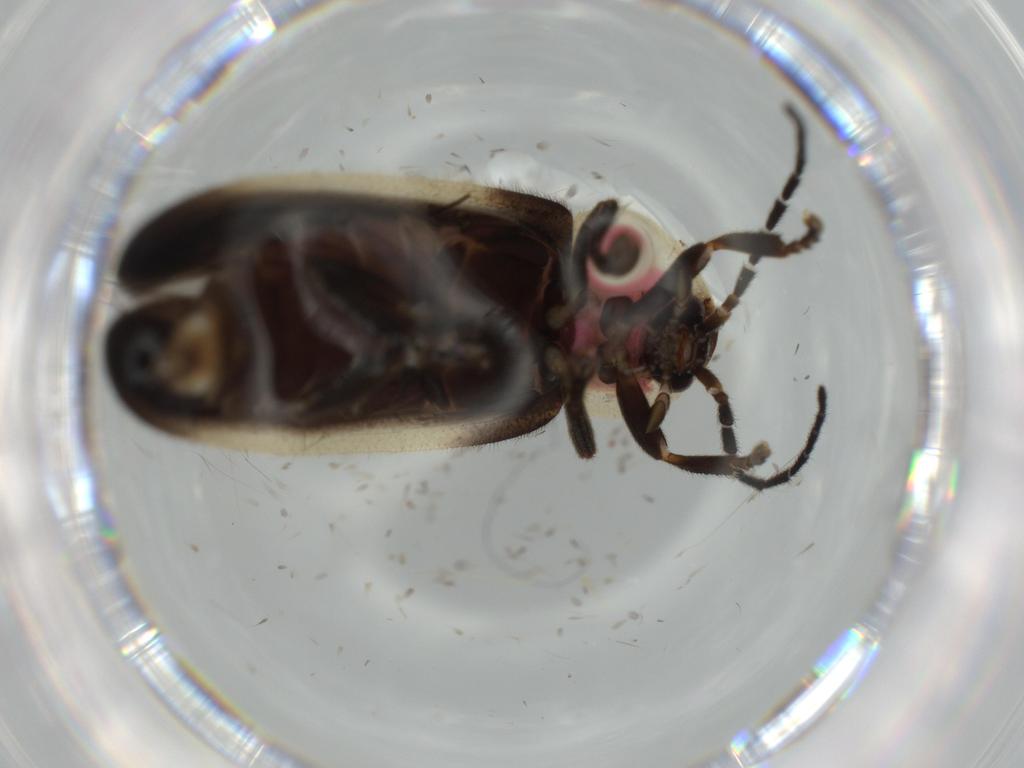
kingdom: Animalia
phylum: Arthropoda
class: Insecta
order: Coleoptera
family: Lampyridae
